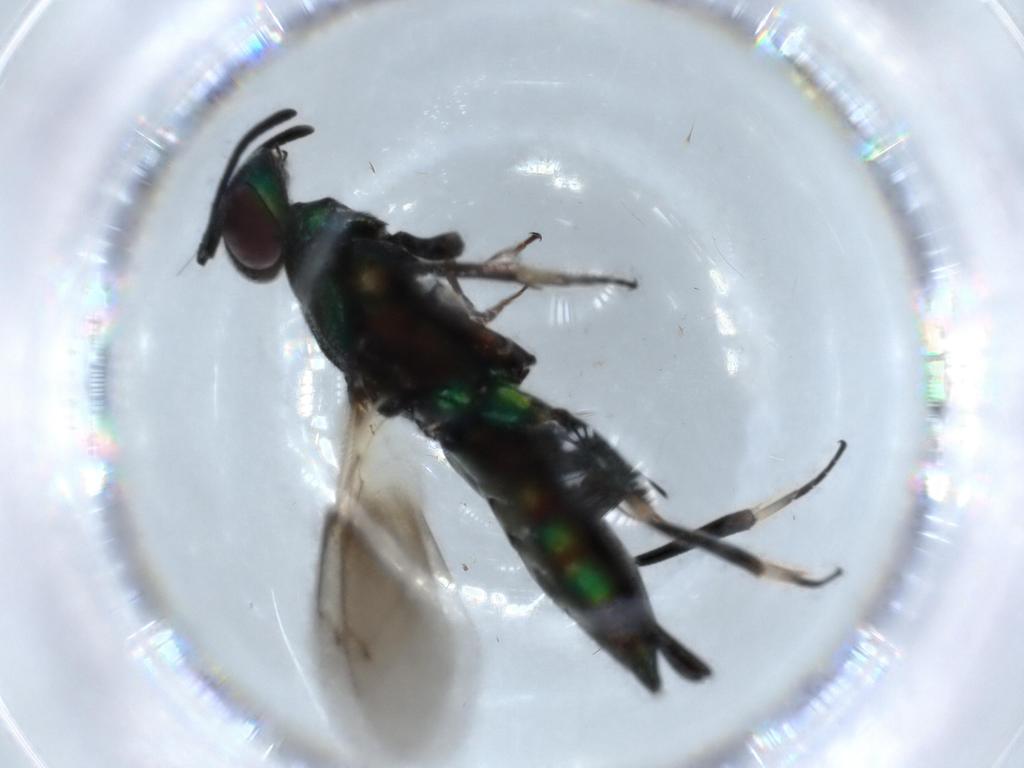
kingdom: Animalia
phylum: Arthropoda
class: Insecta
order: Hymenoptera
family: Eupelmidae
